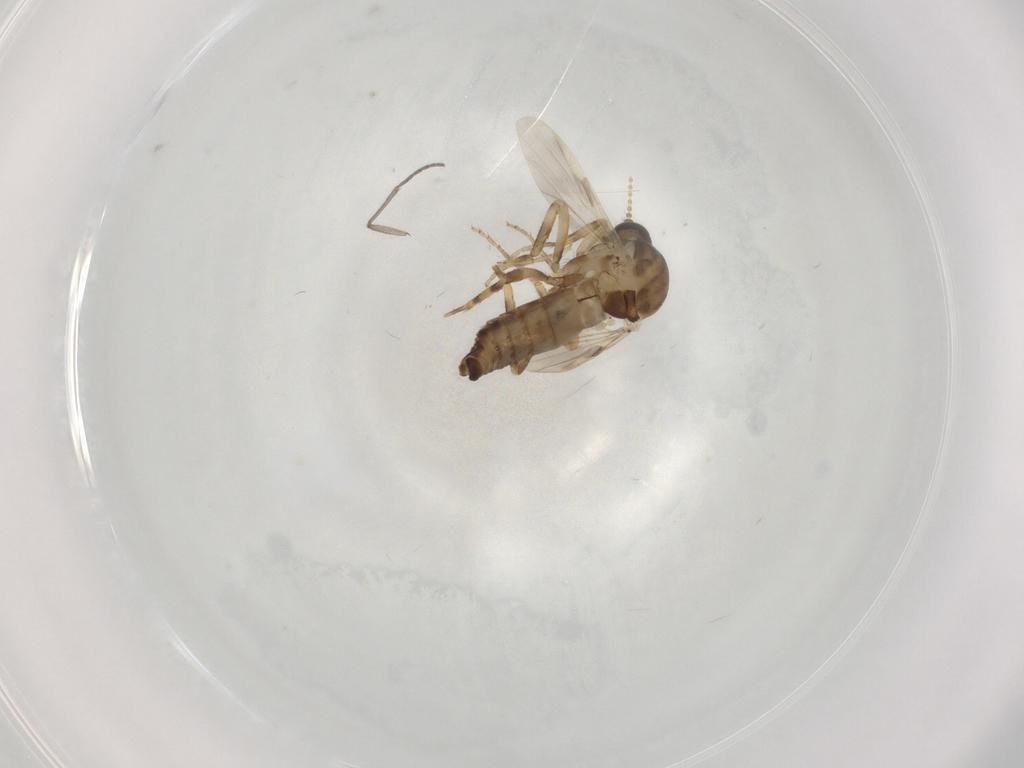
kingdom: Animalia
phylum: Arthropoda
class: Insecta
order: Diptera
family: Ceratopogonidae
